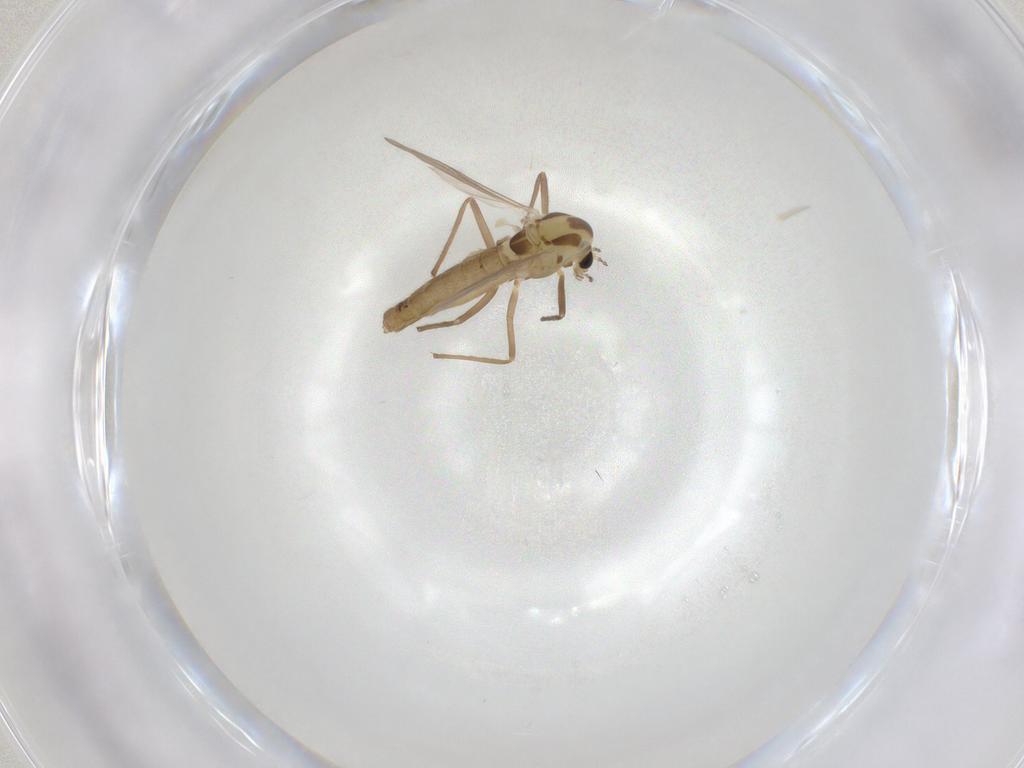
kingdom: Animalia
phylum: Arthropoda
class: Insecta
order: Diptera
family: Chironomidae
